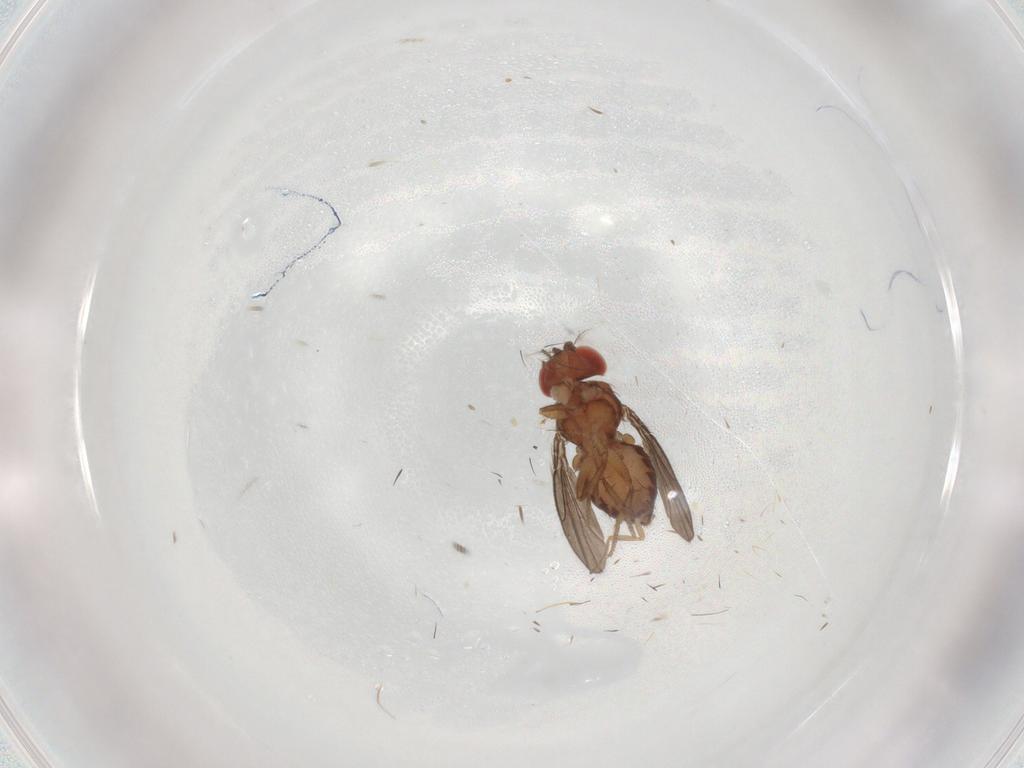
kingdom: Animalia
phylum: Arthropoda
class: Insecta
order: Diptera
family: Drosophilidae
